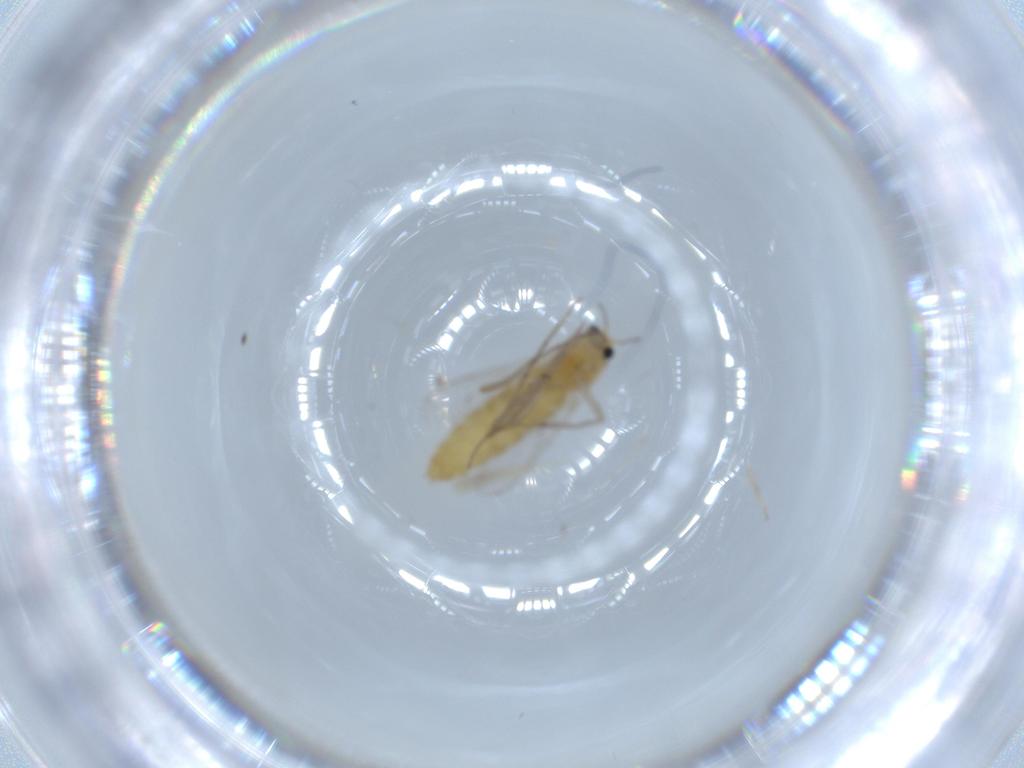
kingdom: Animalia
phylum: Arthropoda
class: Insecta
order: Diptera
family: Chironomidae
